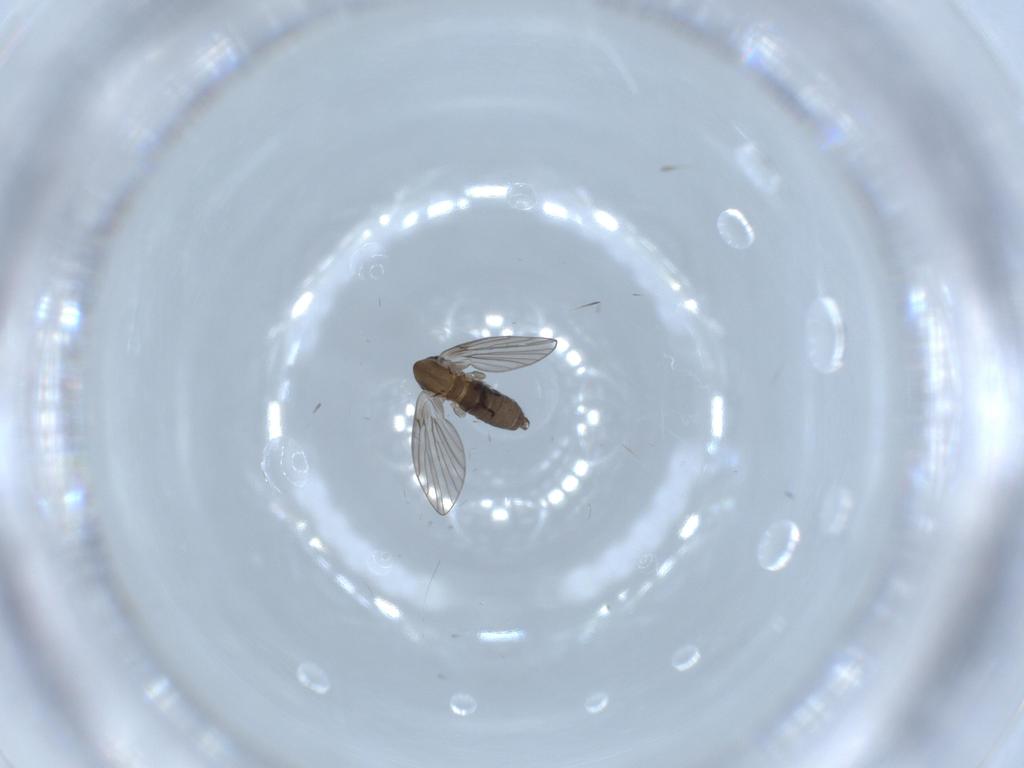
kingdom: Animalia
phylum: Arthropoda
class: Insecta
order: Diptera
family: Psychodidae
